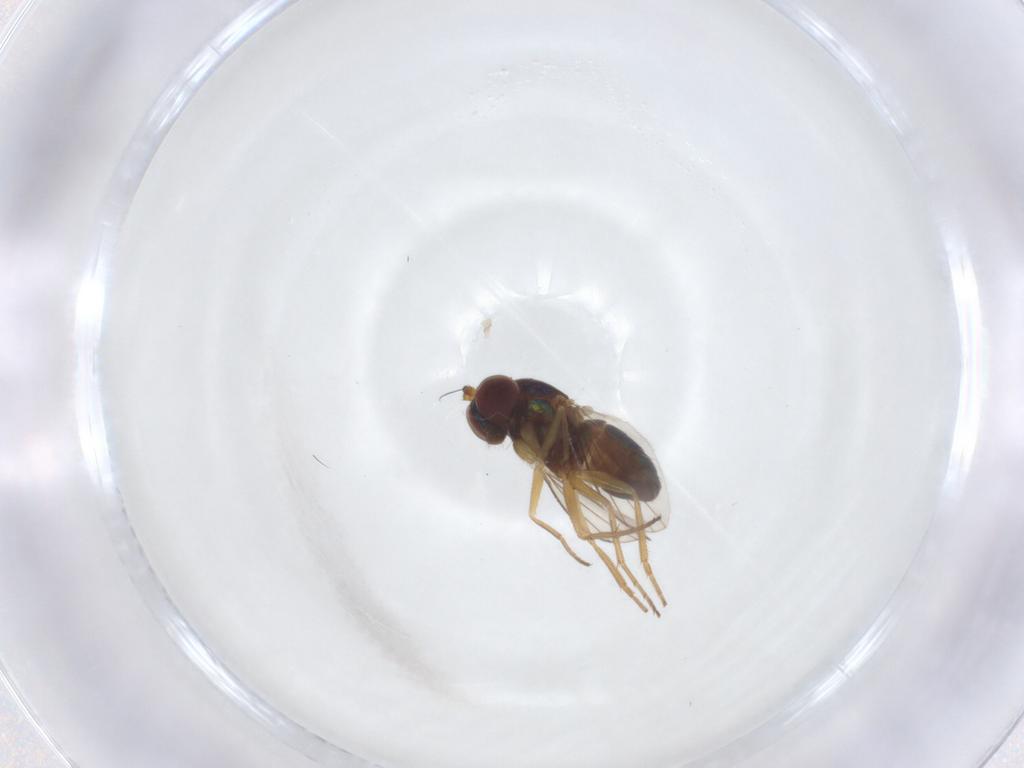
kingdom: Animalia
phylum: Arthropoda
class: Insecta
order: Diptera
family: Dolichopodidae
